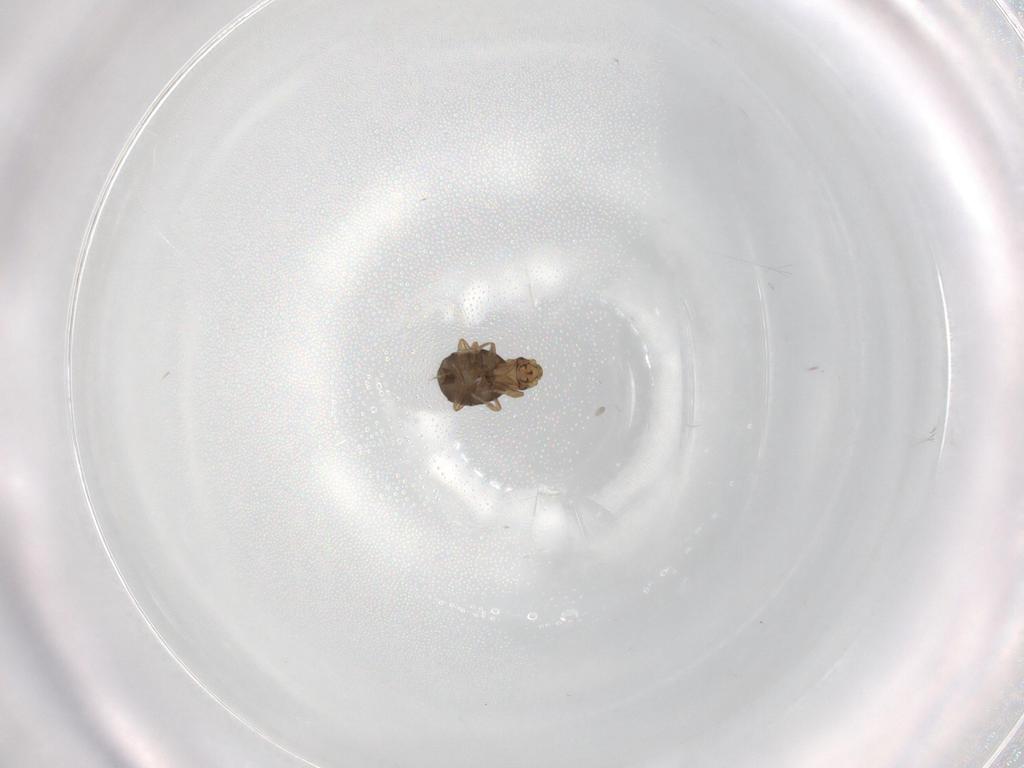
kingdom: Animalia
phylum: Arthropoda
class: Insecta
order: Diptera
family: Phoridae
